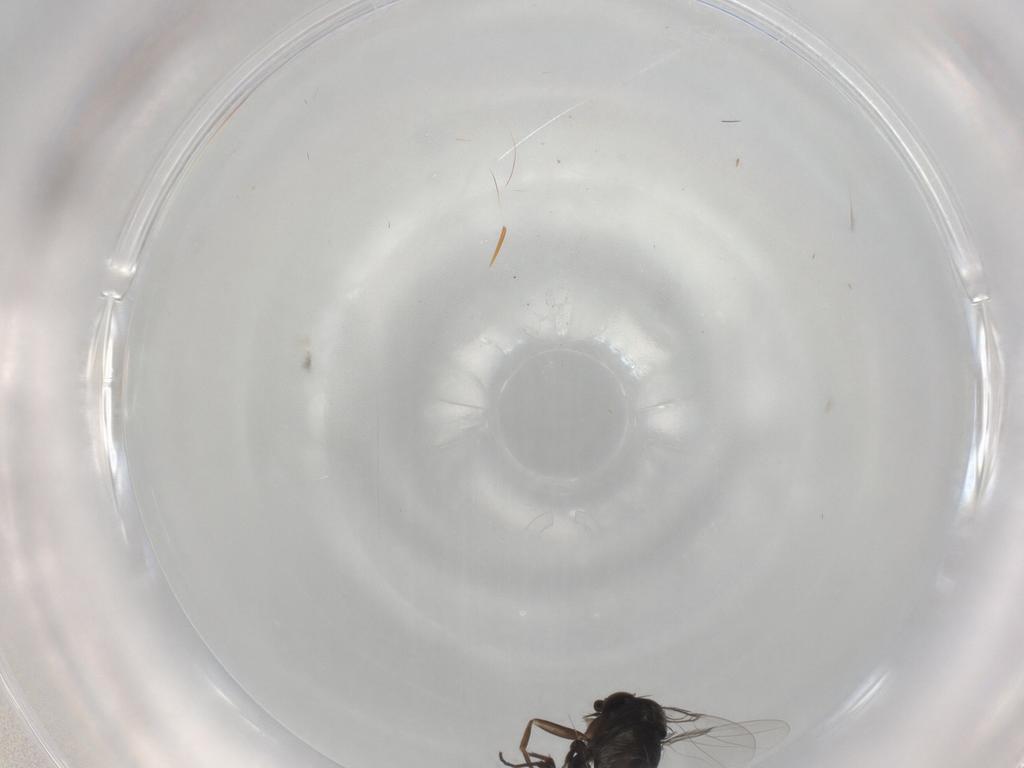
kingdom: Animalia
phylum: Arthropoda
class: Insecta
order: Diptera
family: Phoridae
